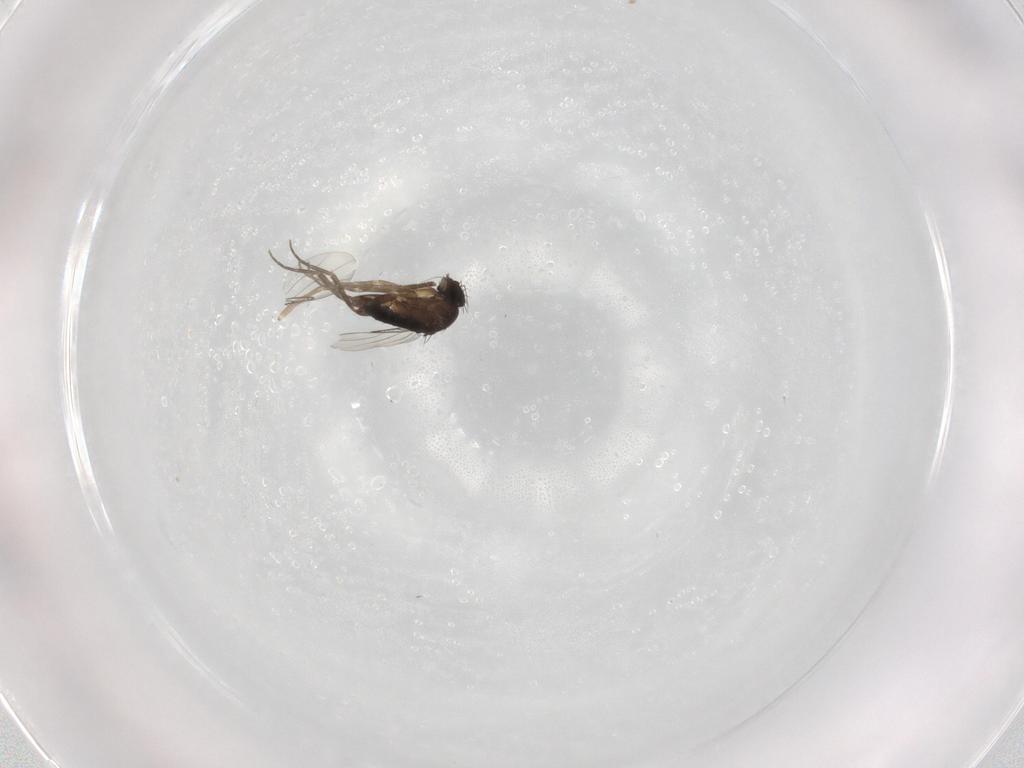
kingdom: Animalia
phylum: Arthropoda
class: Insecta
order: Diptera
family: Phoridae
